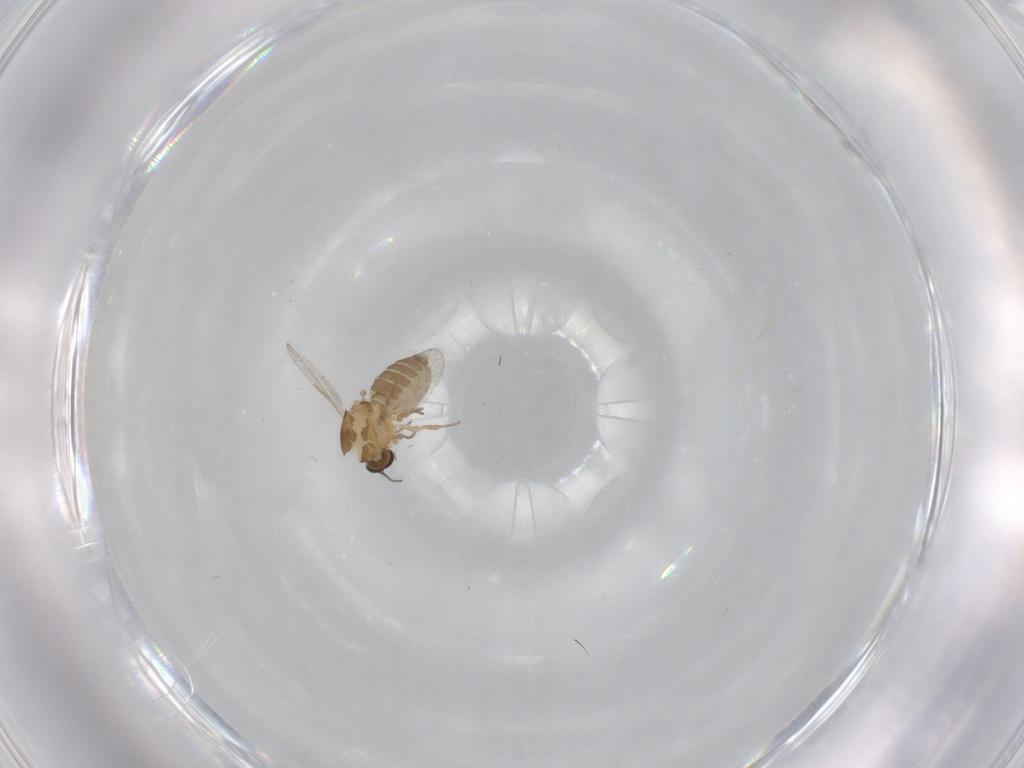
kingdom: Animalia
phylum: Arthropoda
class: Insecta
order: Diptera
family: Ceratopogonidae
